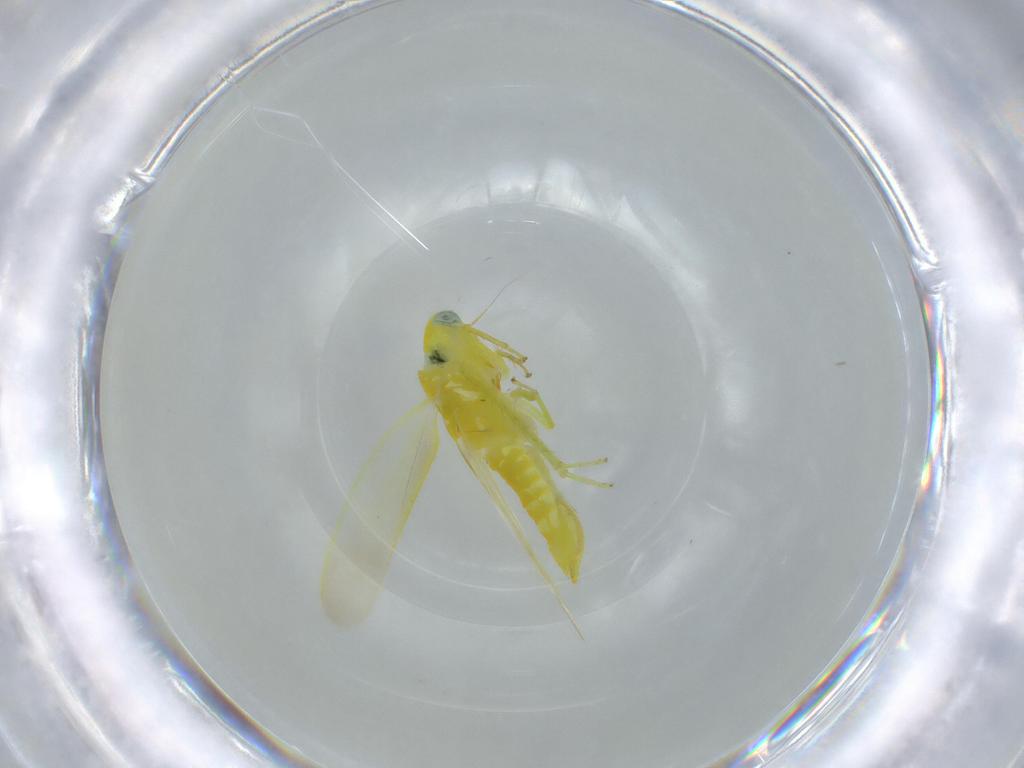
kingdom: Animalia
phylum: Arthropoda
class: Insecta
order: Hemiptera
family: Cicadellidae
